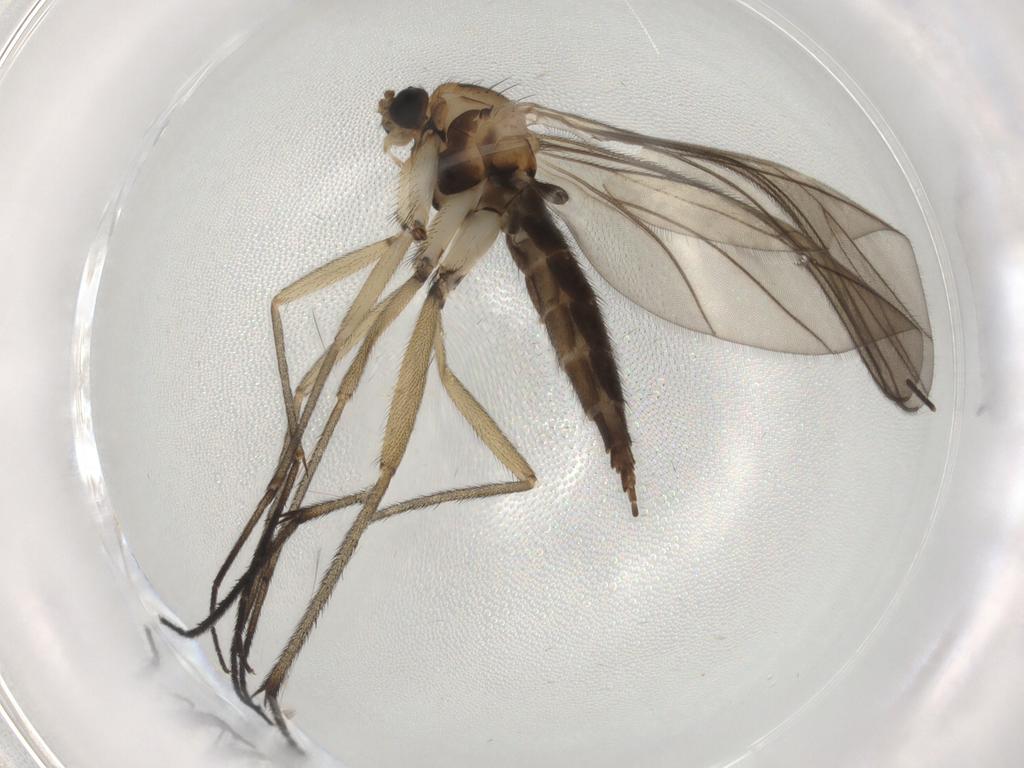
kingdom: Animalia
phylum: Arthropoda
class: Insecta
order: Diptera
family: Sciaridae
